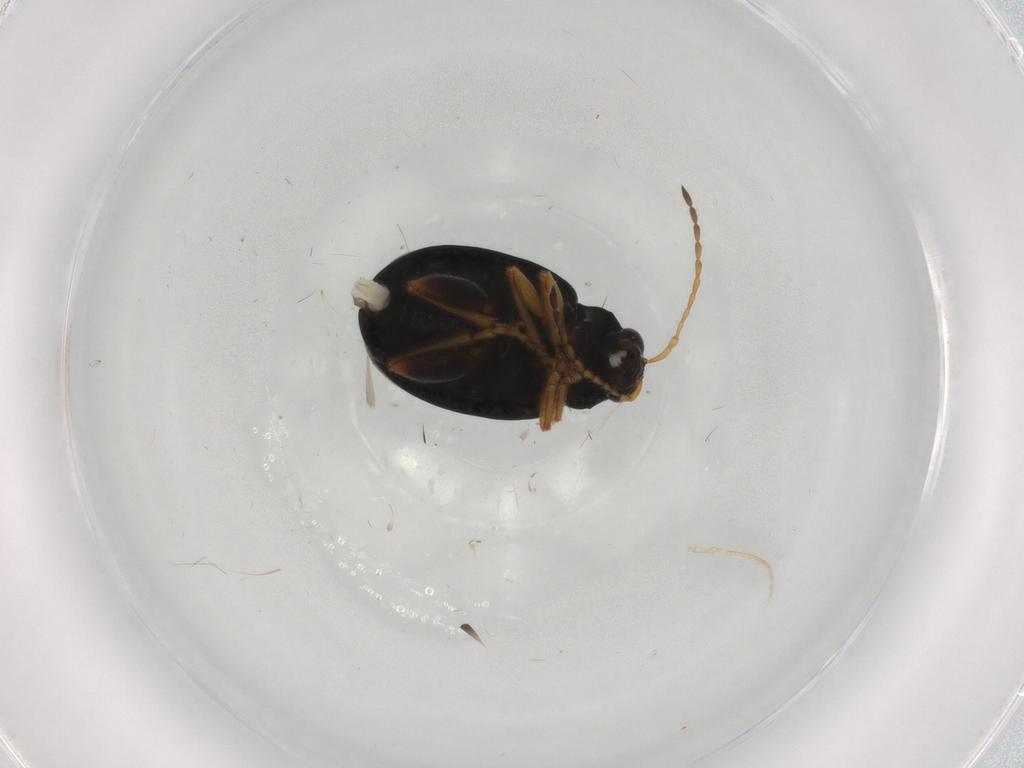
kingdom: Animalia
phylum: Arthropoda
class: Insecta
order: Coleoptera
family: Chrysomelidae
